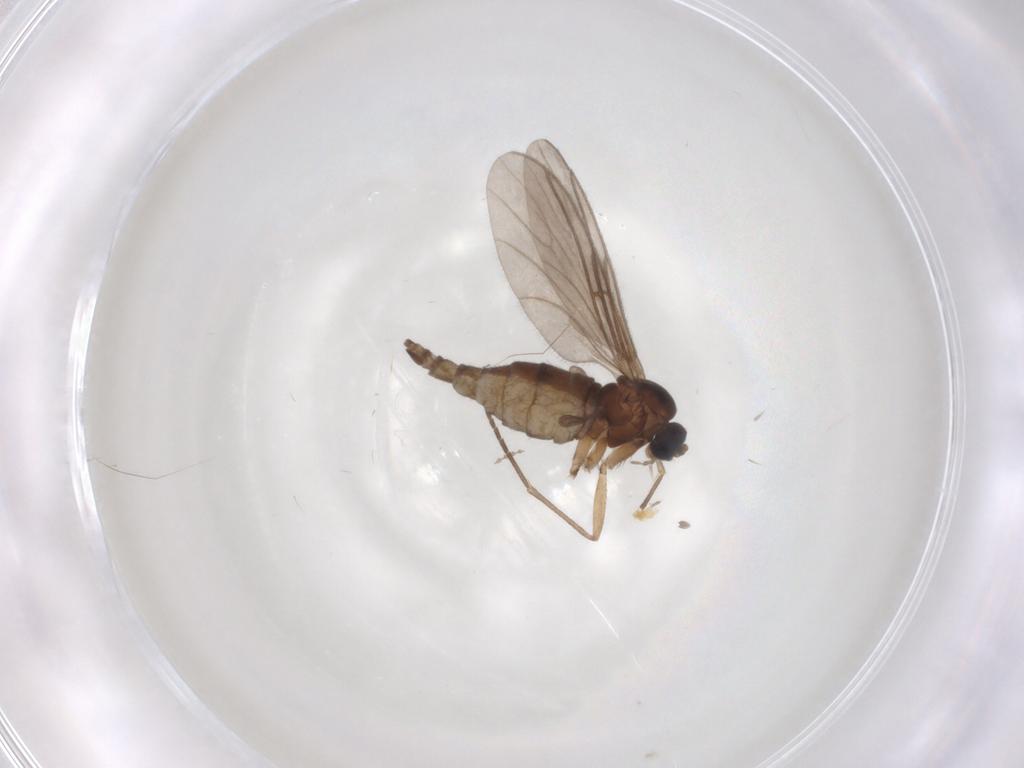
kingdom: Animalia
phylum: Arthropoda
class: Insecta
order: Diptera
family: Sciaridae
